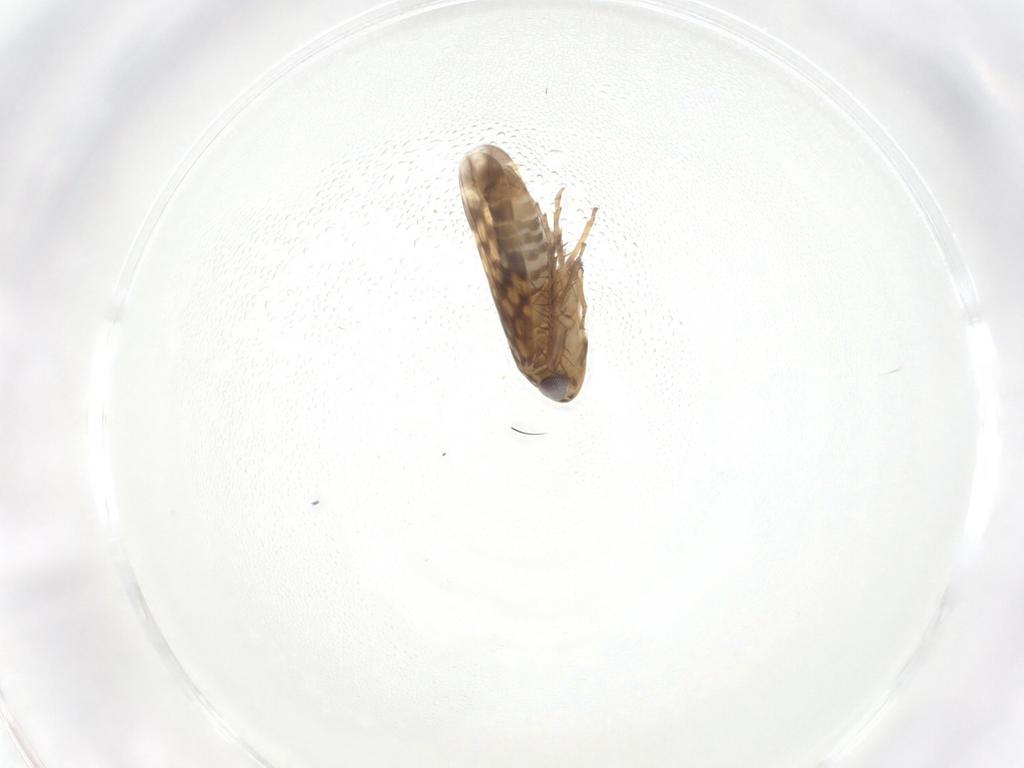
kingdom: Animalia
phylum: Arthropoda
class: Insecta
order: Hemiptera
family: Cicadellidae
